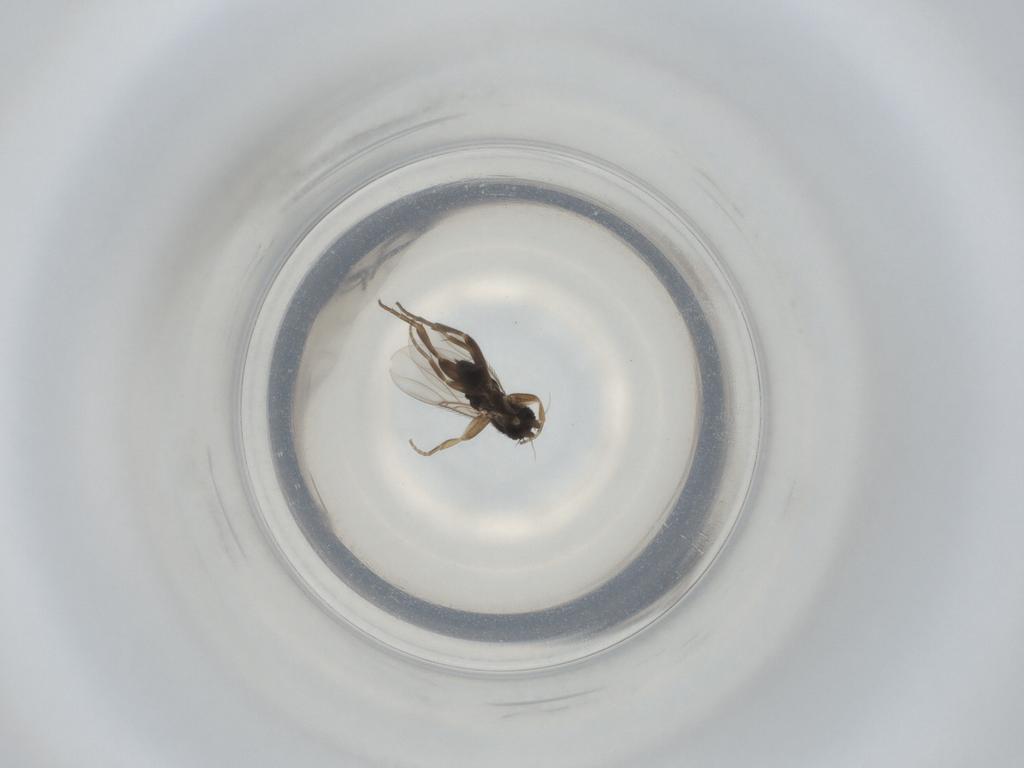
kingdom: Animalia
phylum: Arthropoda
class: Insecta
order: Diptera
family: Phoridae
